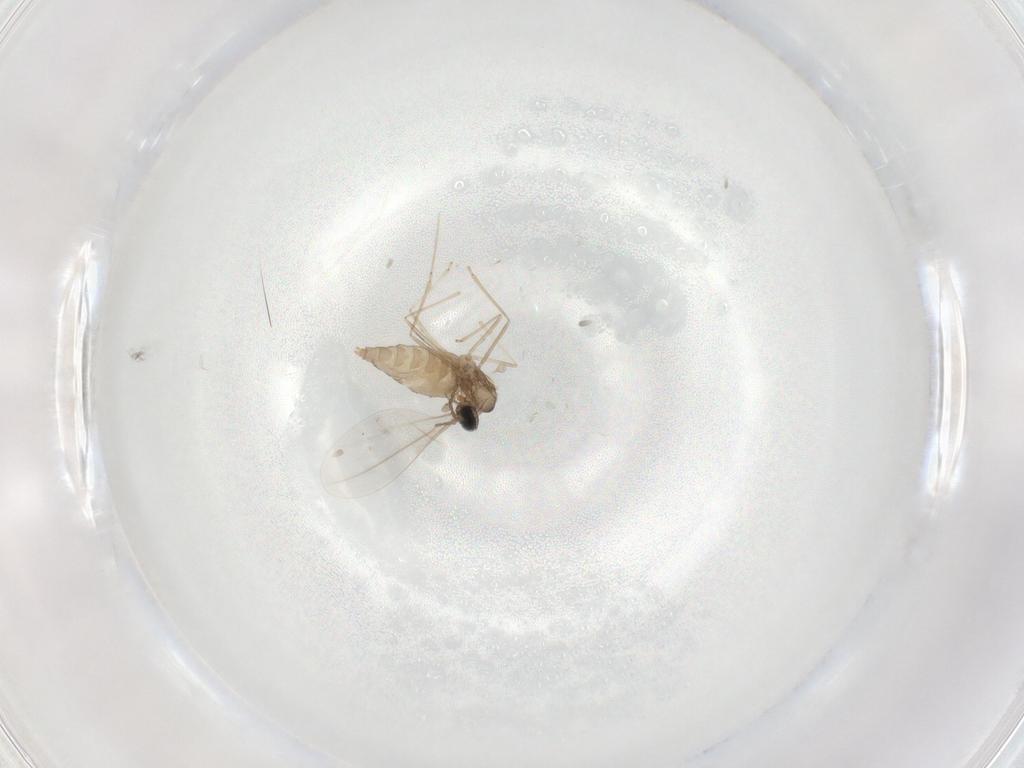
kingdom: Animalia
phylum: Arthropoda
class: Insecta
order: Diptera
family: Cecidomyiidae
